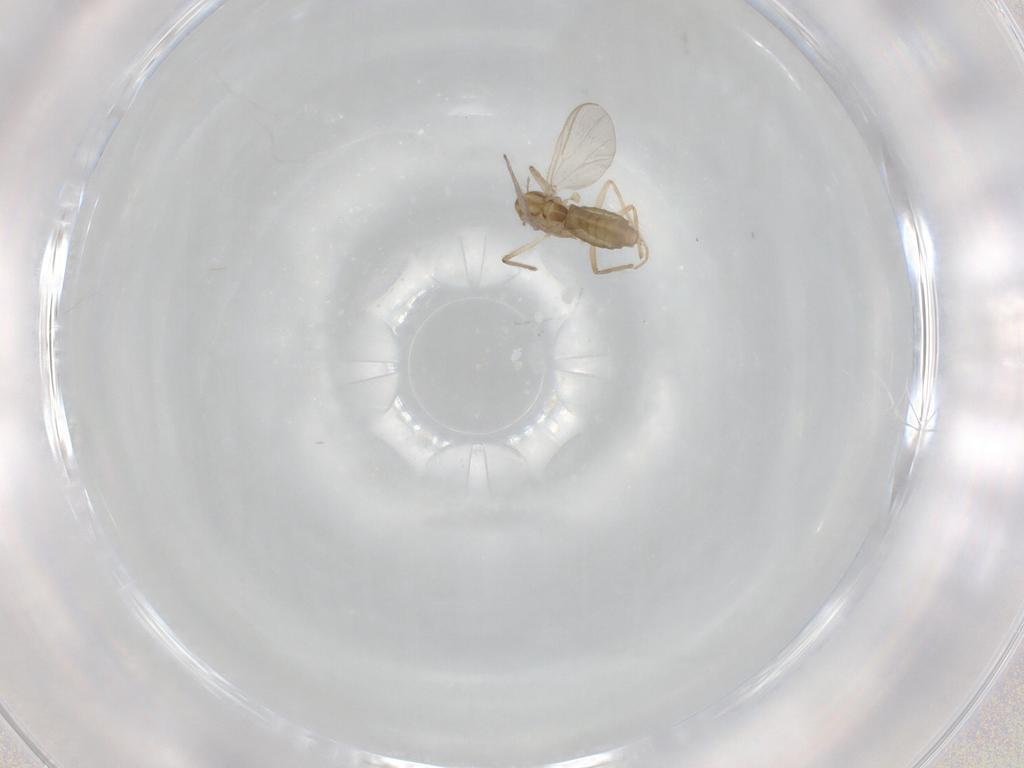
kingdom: Animalia
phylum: Arthropoda
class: Insecta
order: Diptera
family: Chironomidae
